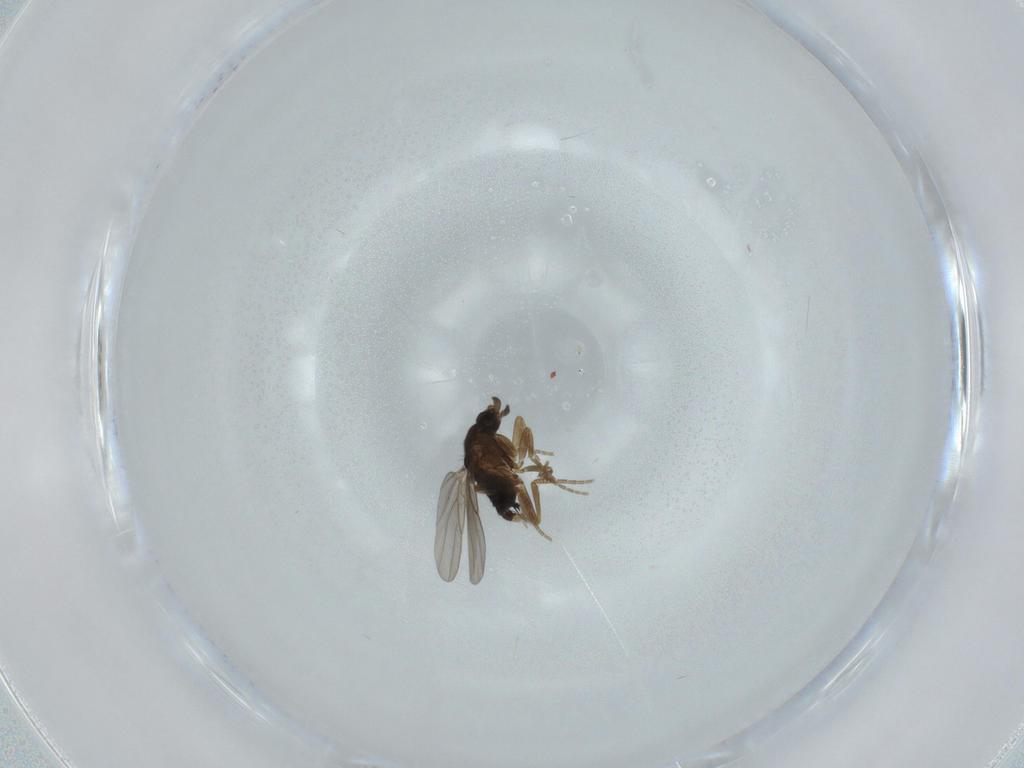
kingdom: Animalia
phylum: Arthropoda
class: Insecta
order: Diptera
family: Phoridae
